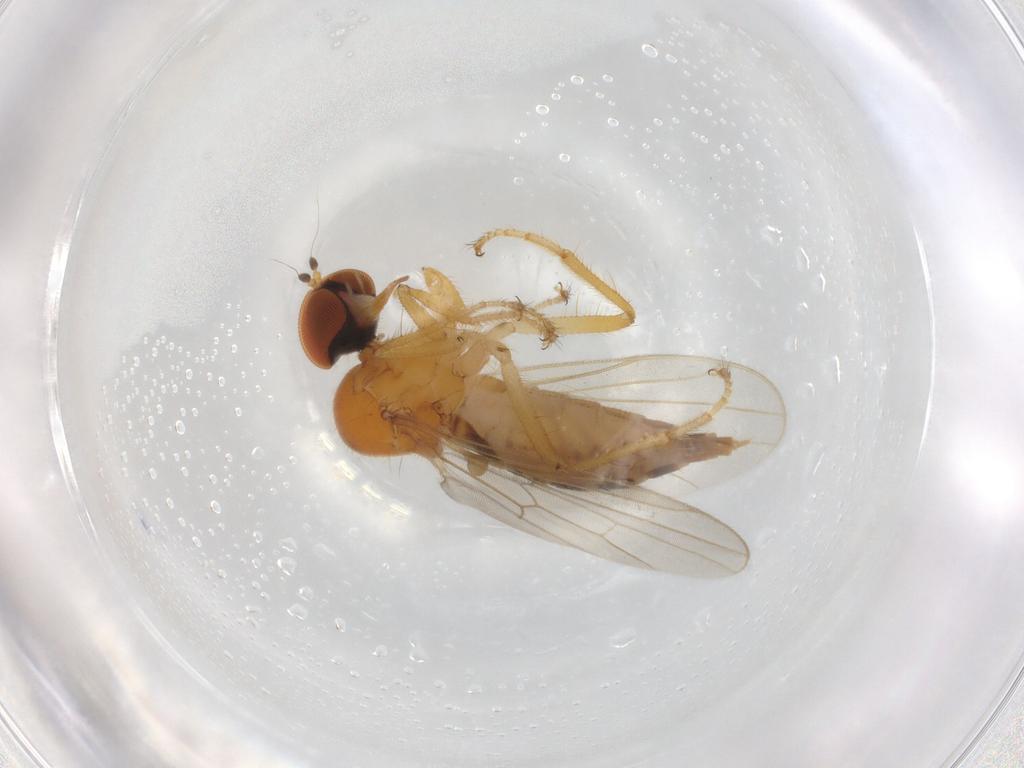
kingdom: Animalia
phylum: Arthropoda
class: Insecta
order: Diptera
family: Hybotidae
